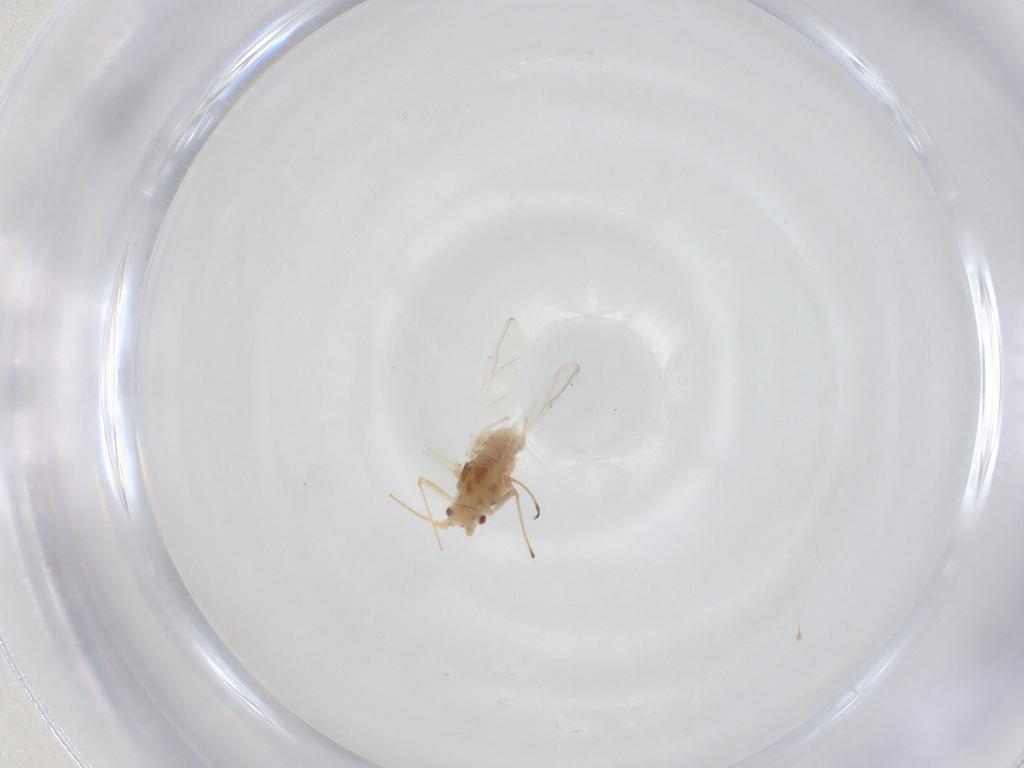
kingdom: Animalia
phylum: Arthropoda
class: Insecta
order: Hemiptera
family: Aphididae
